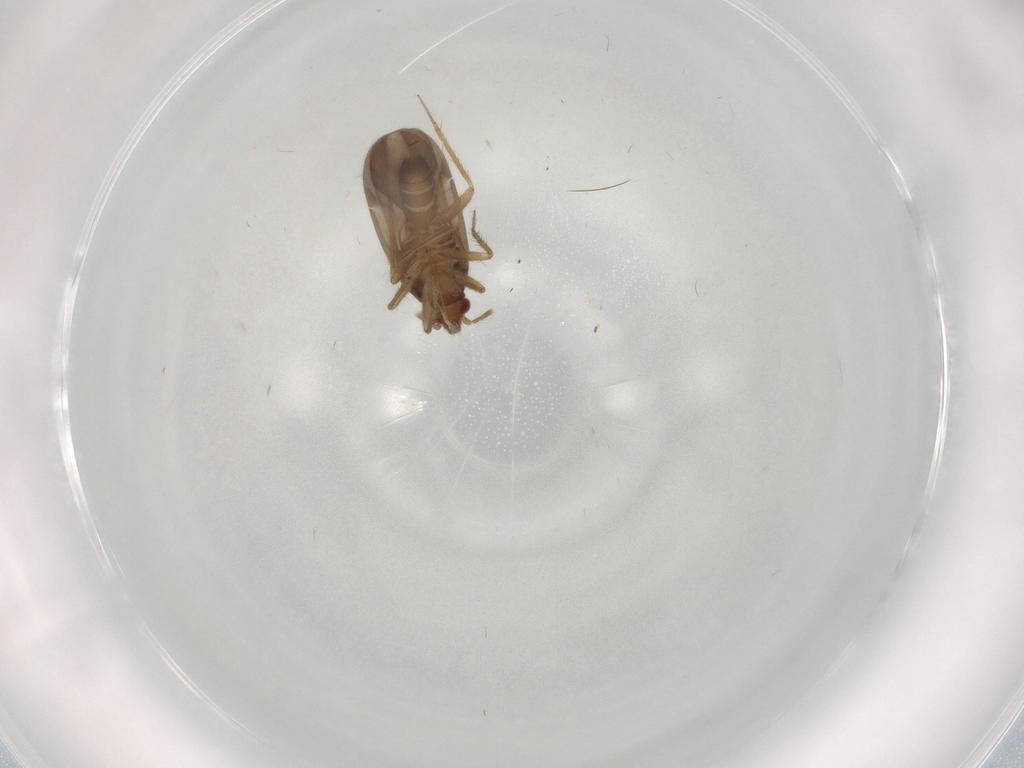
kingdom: Animalia
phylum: Arthropoda
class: Insecta
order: Hemiptera
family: Ceratocombidae
